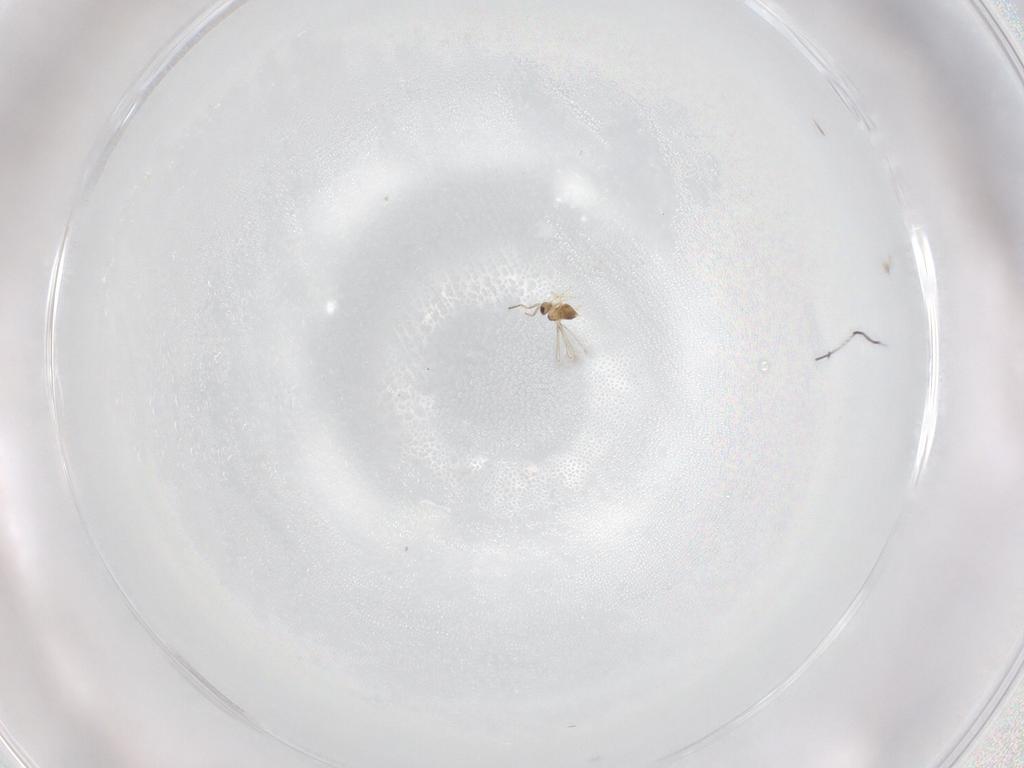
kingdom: Animalia
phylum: Arthropoda
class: Insecta
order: Hymenoptera
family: Mymaridae
